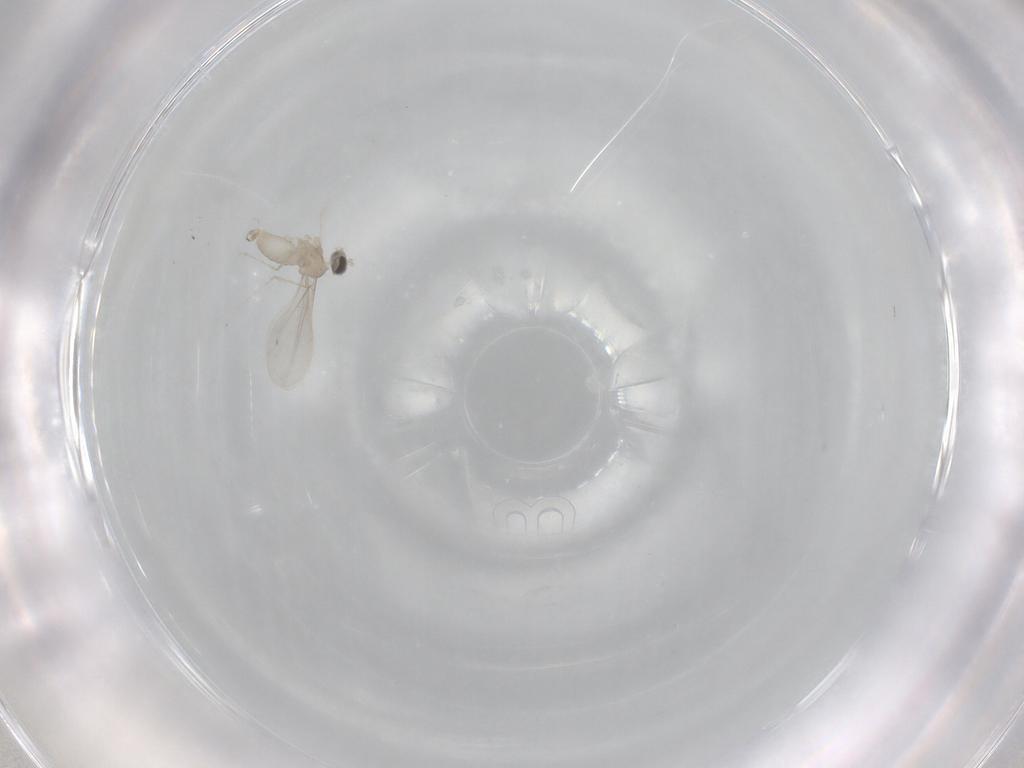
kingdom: Animalia
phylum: Arthropoda
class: Insecta
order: Diptera
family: Cecidomyiidae
